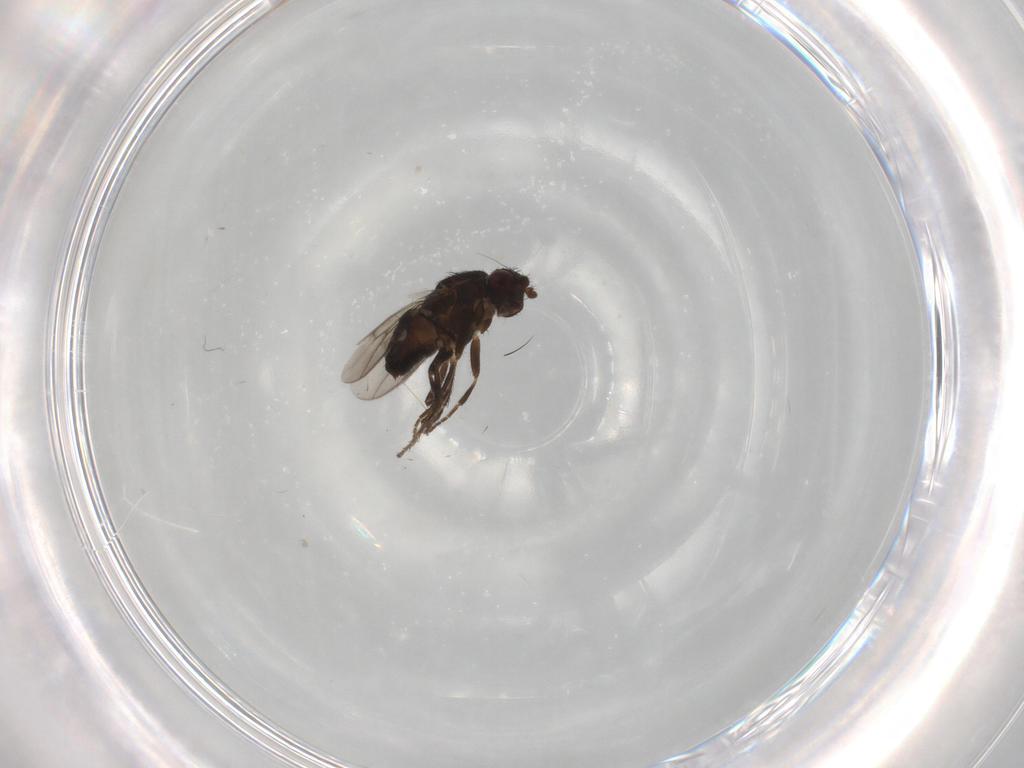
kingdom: Animalia
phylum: Arthropoda
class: Insecta
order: Diptera
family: Sphaeroceridae
